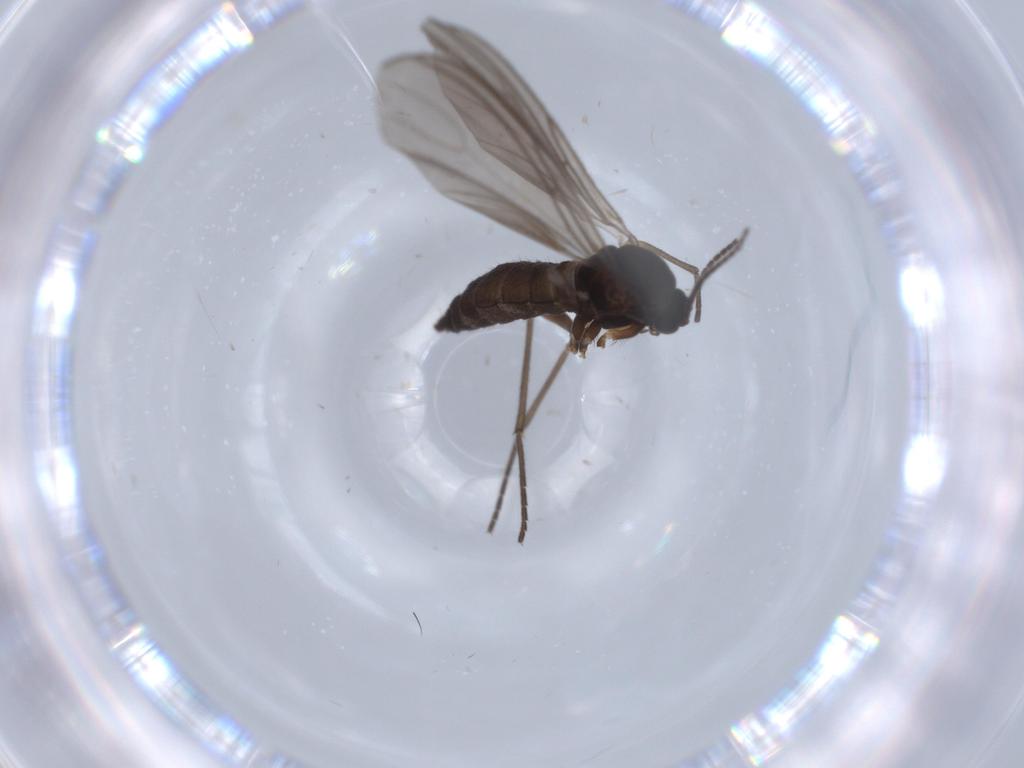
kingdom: Animalia
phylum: Arthropoda
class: Insecta
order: Diptera
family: Sciaridae
